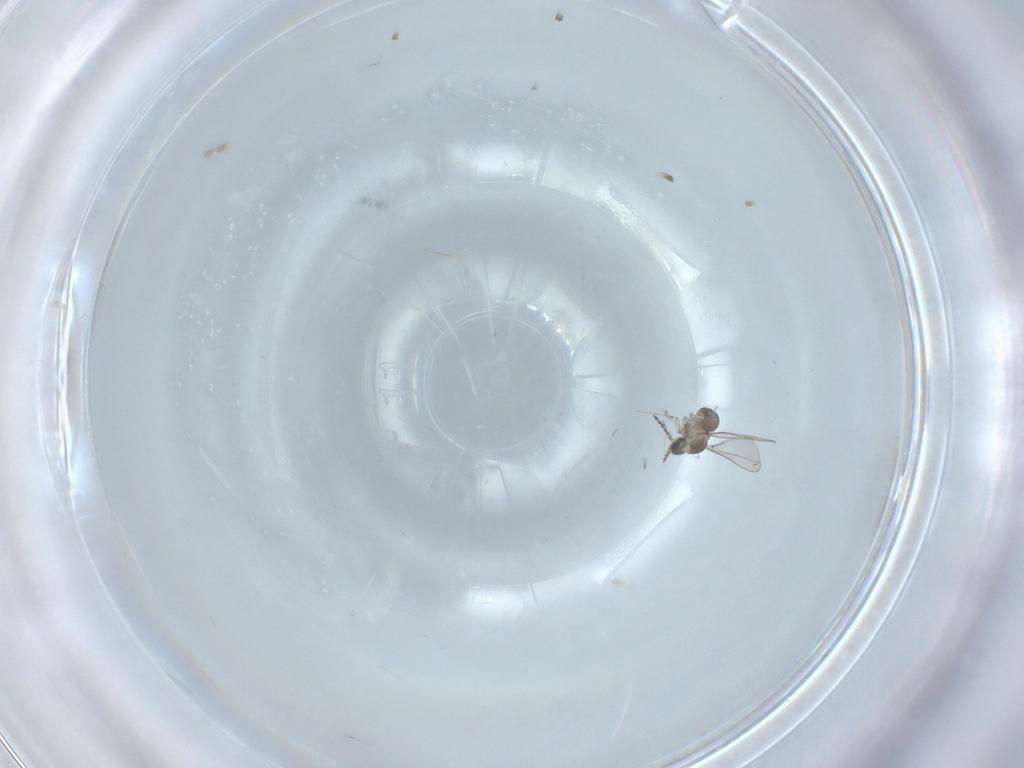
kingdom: Animalia
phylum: Arthropoda
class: Insecta
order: Diptera
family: Cecidomyiidae
